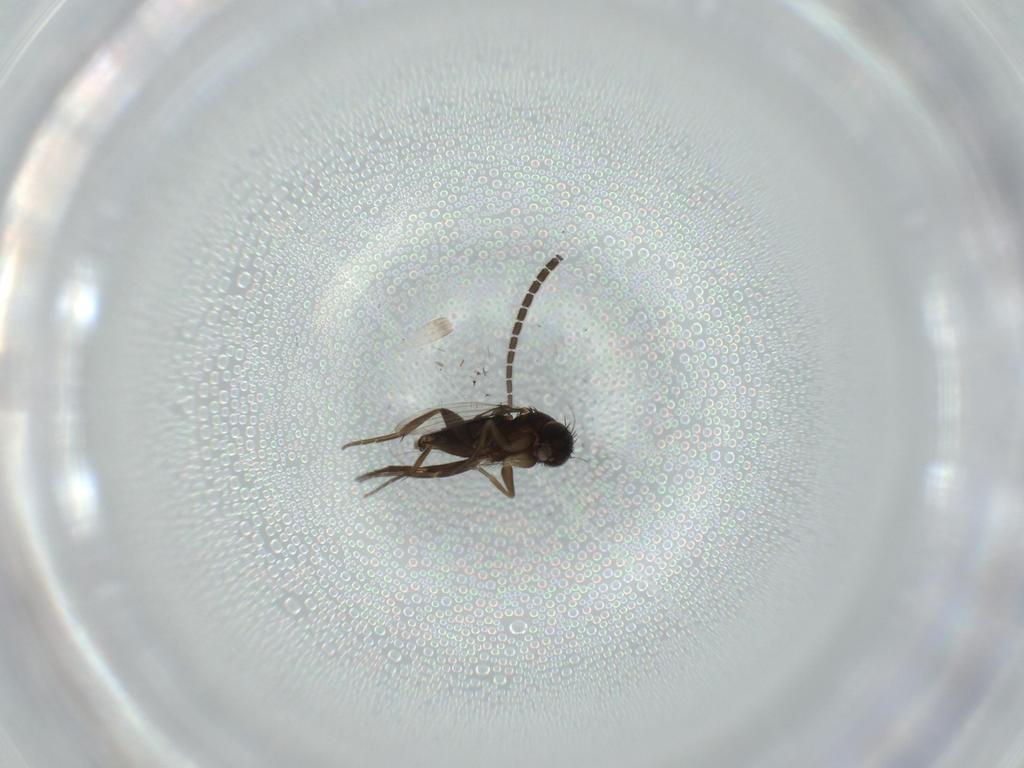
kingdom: Animalia
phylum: Arthropoda
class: Insecta
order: Diptera
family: Phoridae
